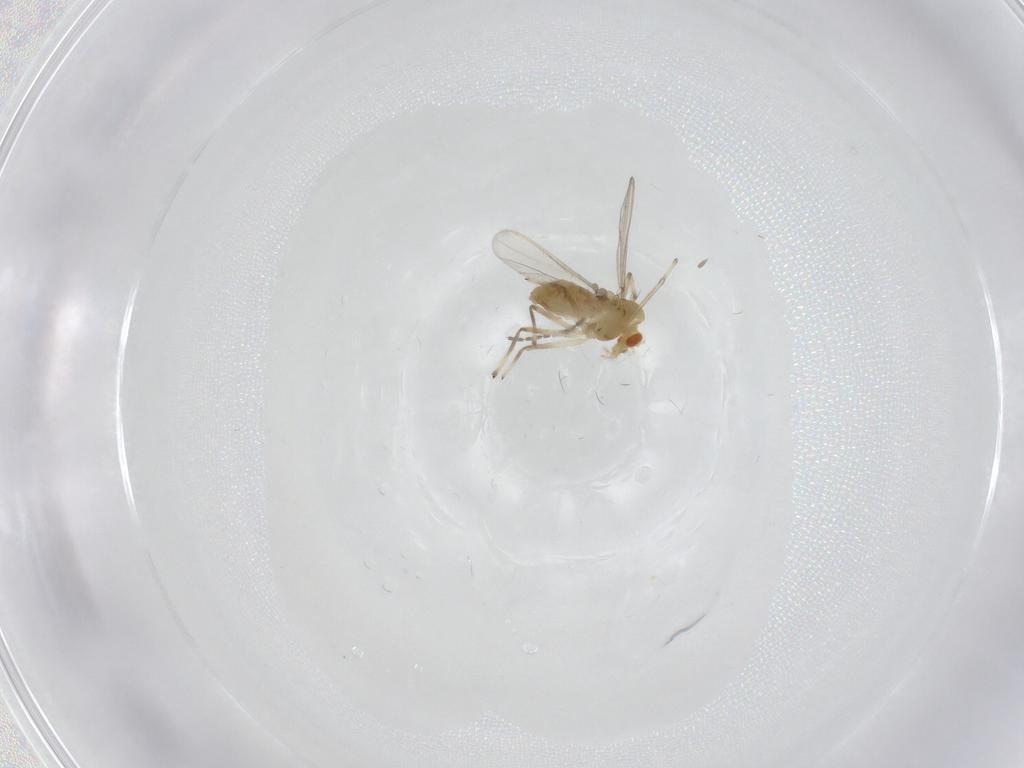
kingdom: Animalia
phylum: Arthropoda
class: Insecta
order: Diptera
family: Chironomidae
